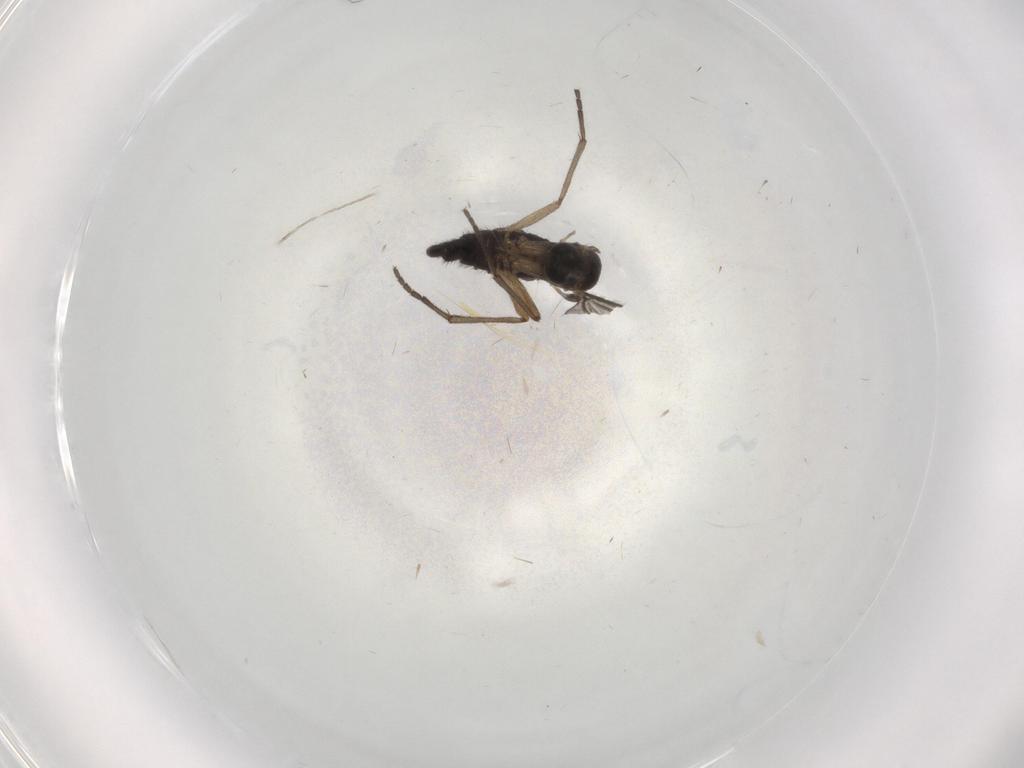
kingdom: Animalia
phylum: Arthropoda
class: Insecta
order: Diptera
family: Sciaridae
